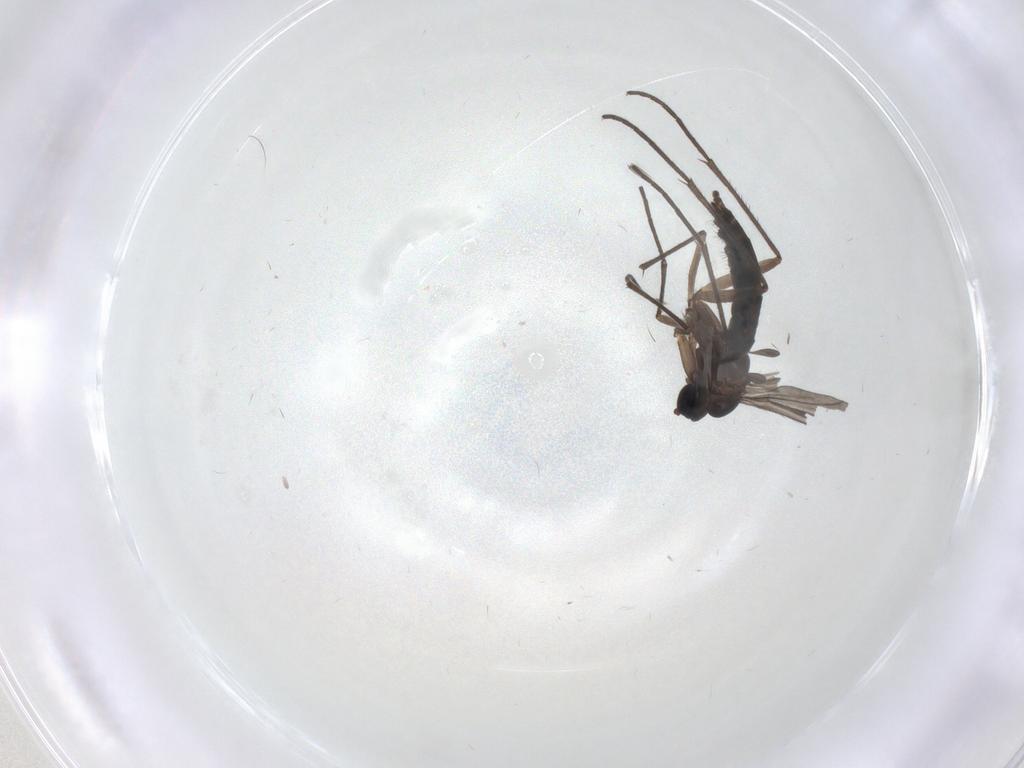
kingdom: Animalia
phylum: Arthropoda
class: Insecta
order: Diptera
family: Sciaridae
